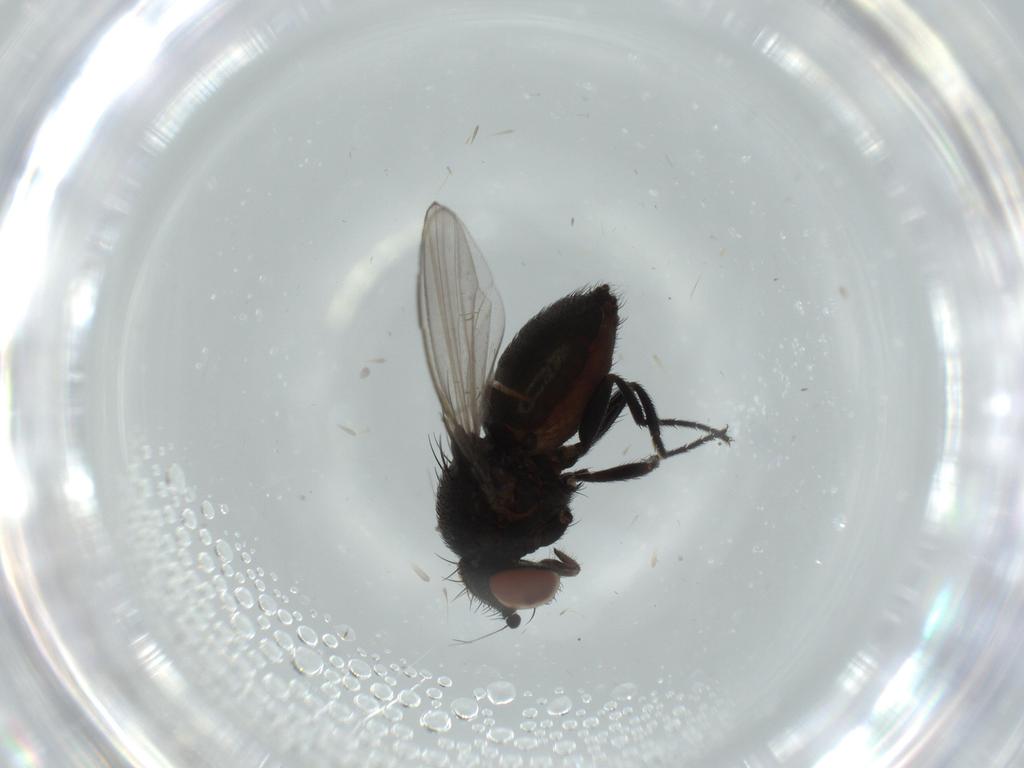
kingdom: Animalia
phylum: Arthropoda
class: Insecta
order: Diptera
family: Milichiidae
